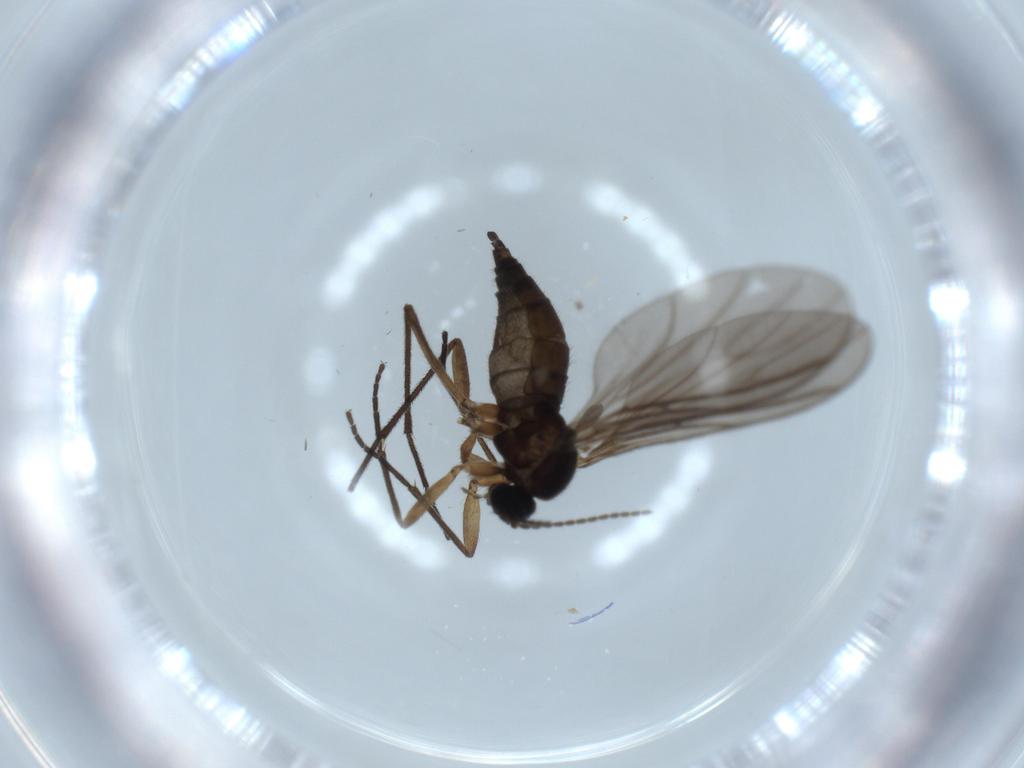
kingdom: Animalia
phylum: Arthropoda
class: Insecta
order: Diptera
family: Sciaridae
